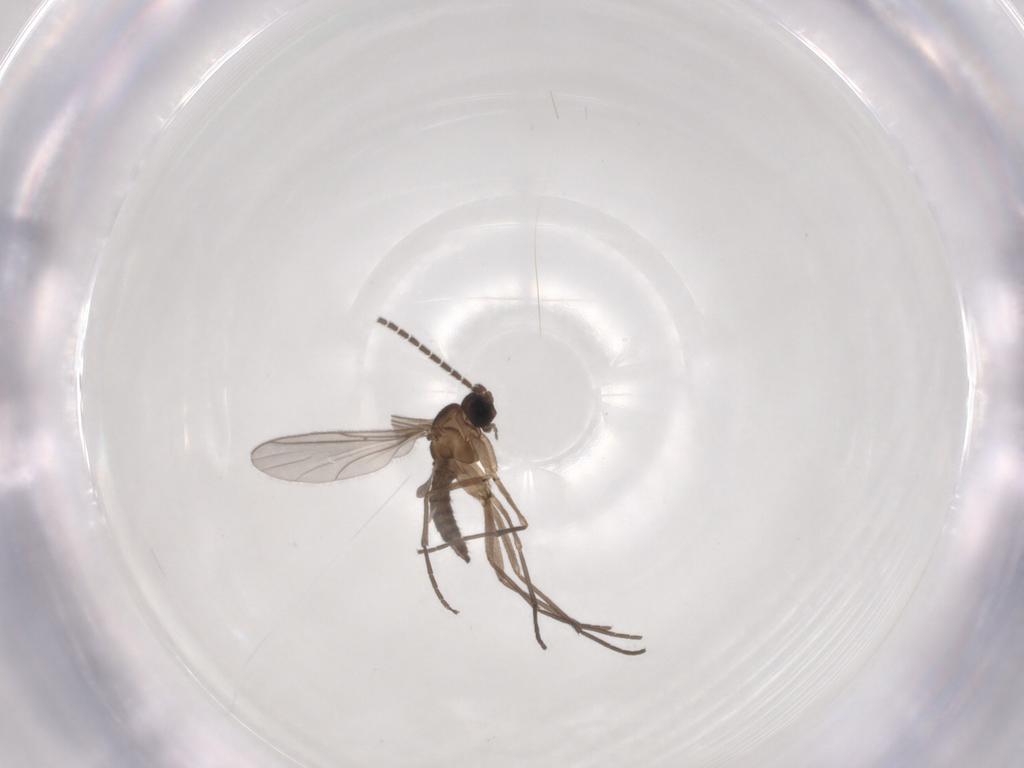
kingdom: Animalia
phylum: Arthropoda
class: Insecta
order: Diptera
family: Sciaridae
